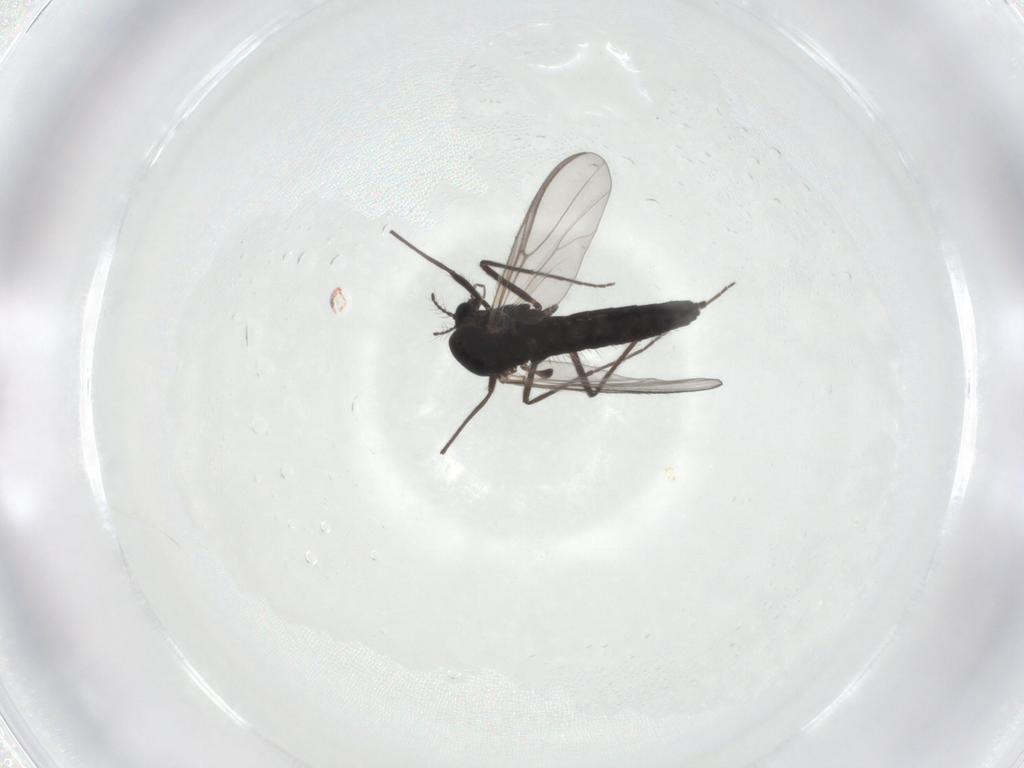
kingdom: Animalia
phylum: Arthropoda
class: Insecta
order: Diptera
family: Chironomidae
